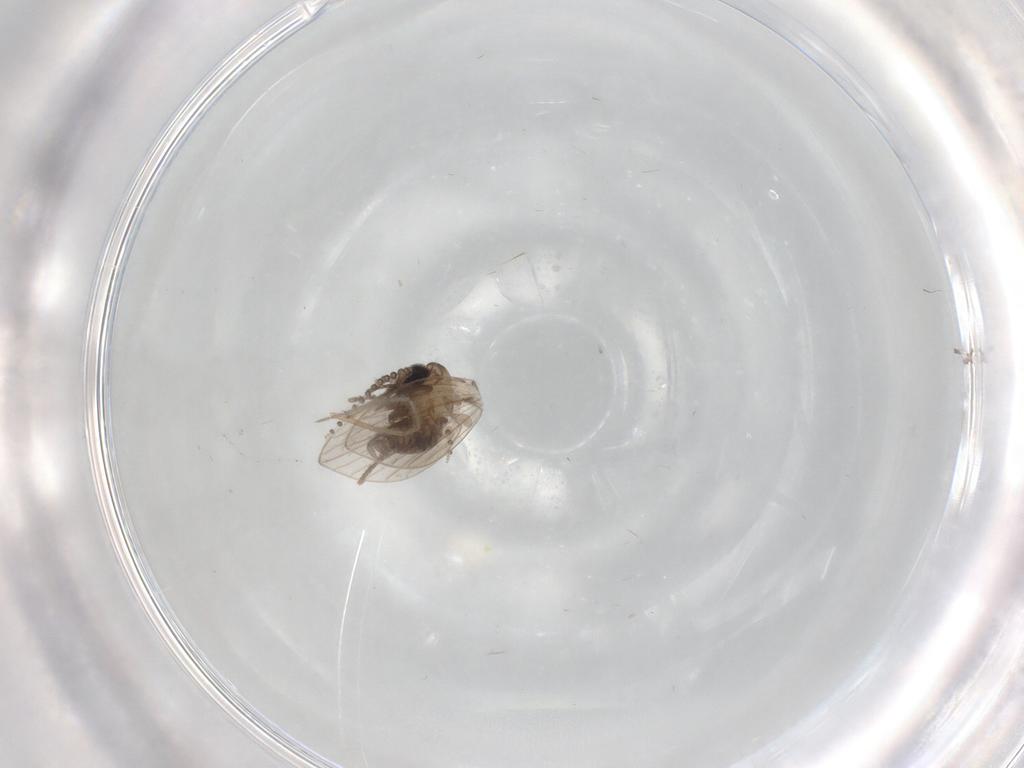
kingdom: Animalia
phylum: Arthropoda
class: Insecta
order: Diptera
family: Psychodidae
